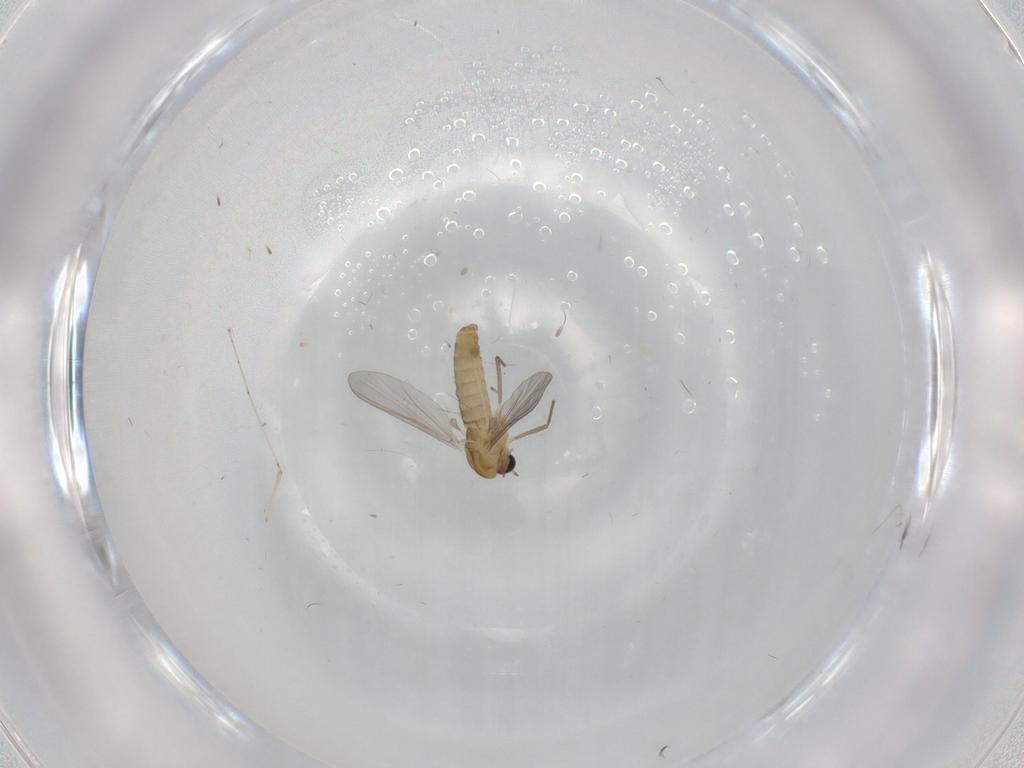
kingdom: Animalia
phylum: Arthropoda
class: Insecta
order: Diptera
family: Chironomidae
